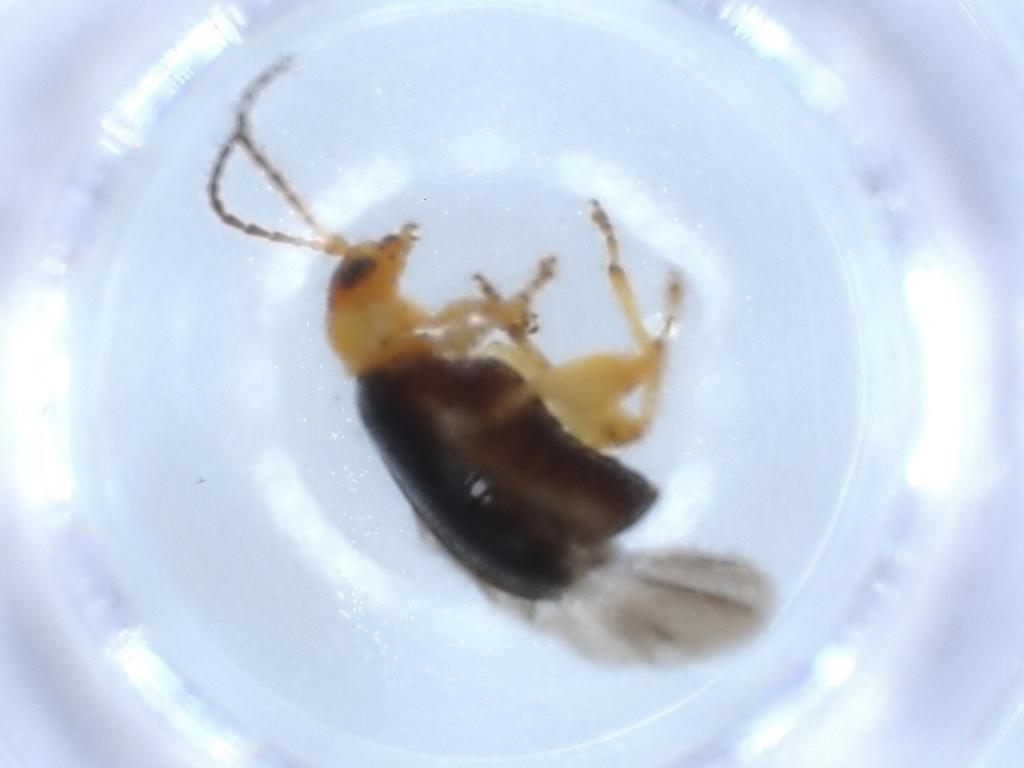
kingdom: Animalia
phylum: Arthropoda
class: Insecta
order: Coleoptera
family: Chrysomelidae
